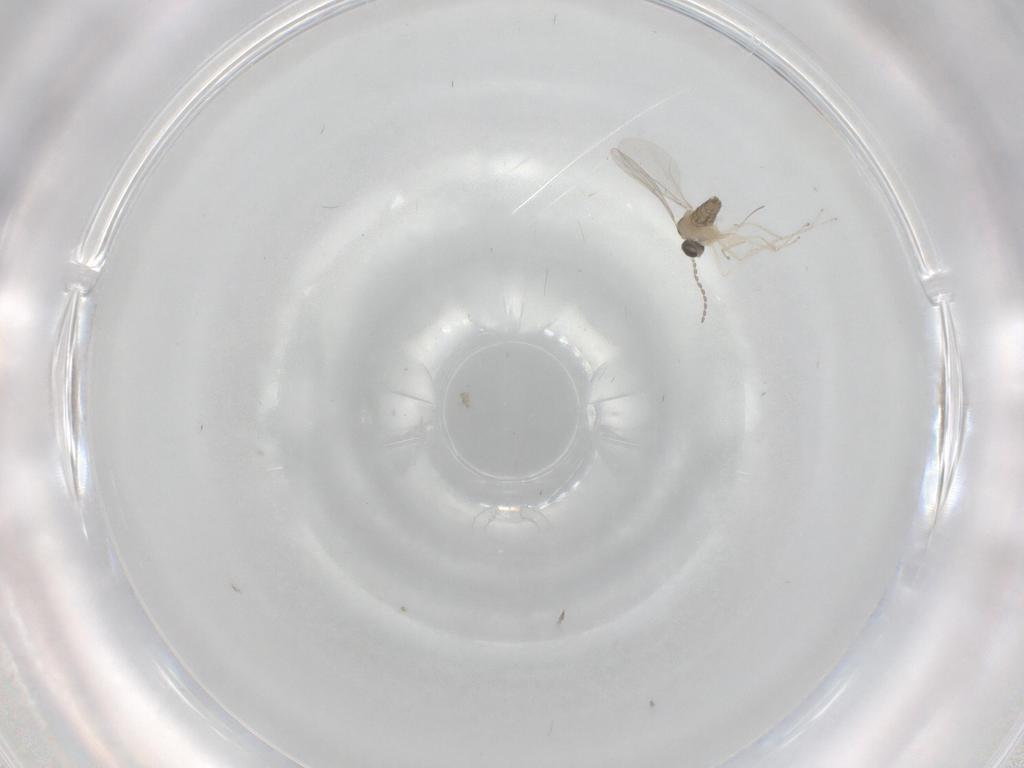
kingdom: Animalia
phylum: Arthropoda
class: Insecta
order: Diptera
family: Cecidomyiidae
